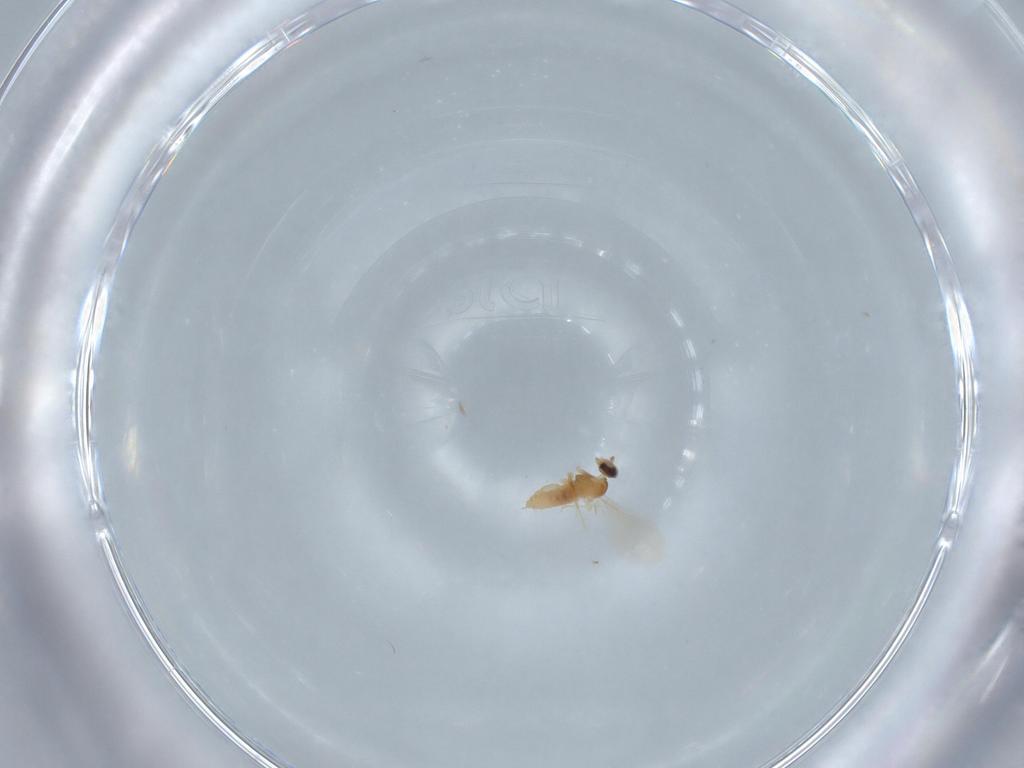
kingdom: Animalia
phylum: Arthropoda
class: Insecta
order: Diptera
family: Cecidomyiidae
